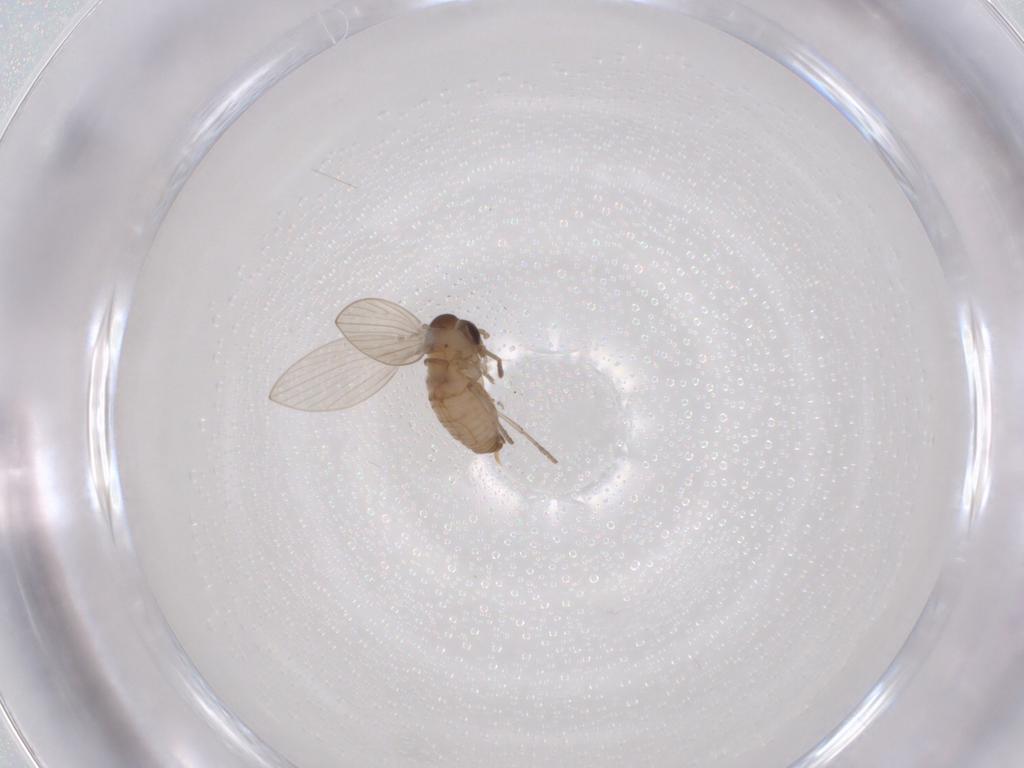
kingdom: Animalia
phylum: Arthropoda
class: Insecta
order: Diptera
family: Psychodidae
